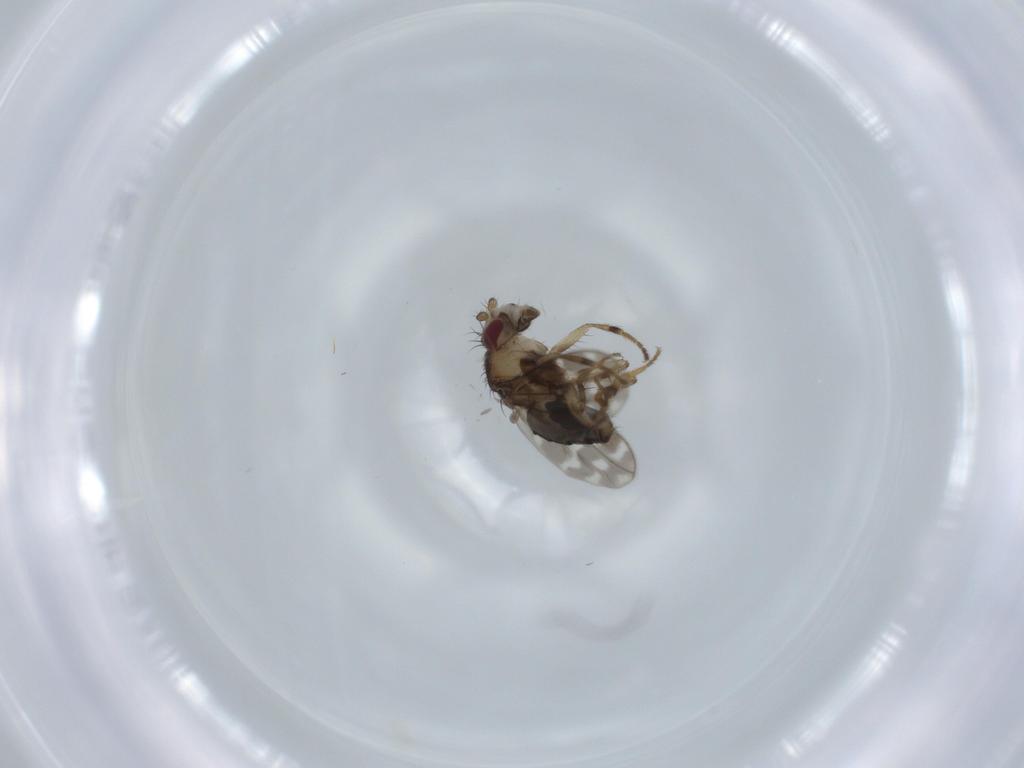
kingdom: Animalia
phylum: Arthropoda
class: Insecta
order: Diptera
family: Sphaeroceridae
